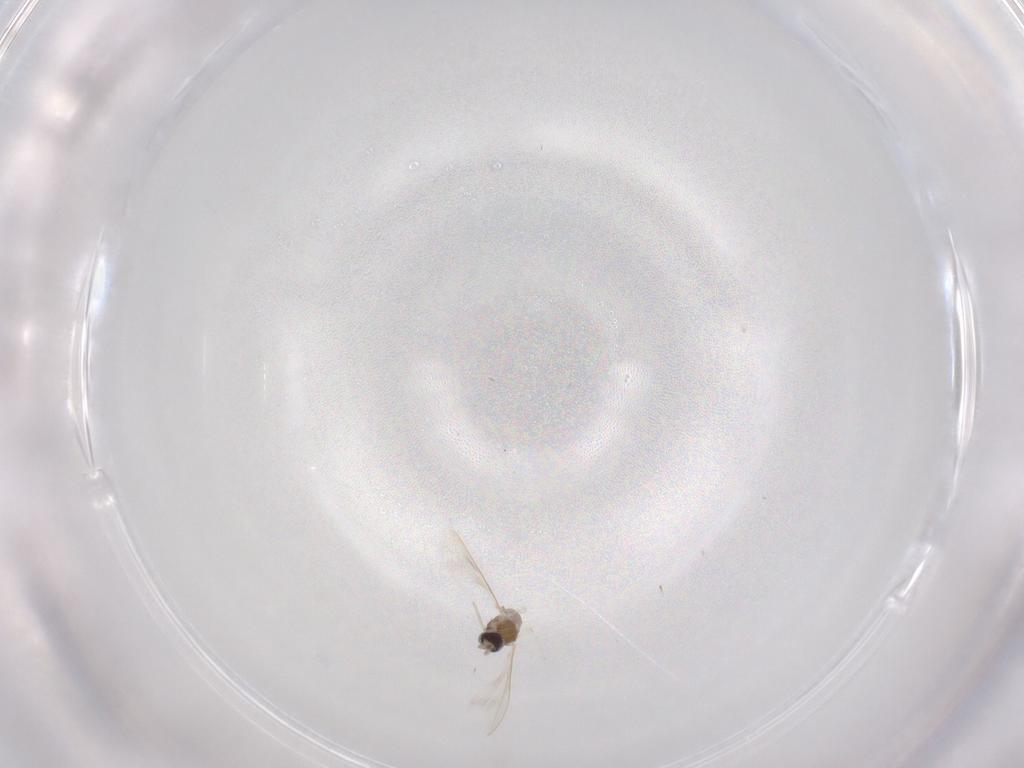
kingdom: Animalia
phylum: Arthropoda
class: Insecta
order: Diptera
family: Cecidomyiidae
